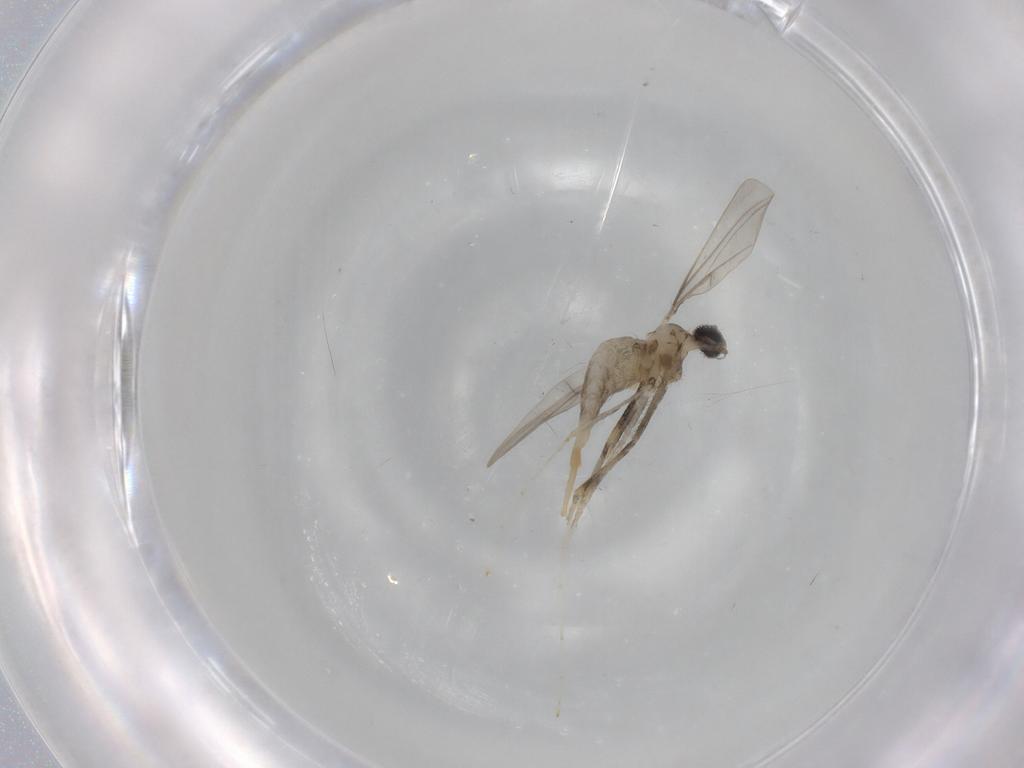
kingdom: Animalia
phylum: Arthropoda
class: Insecta
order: Diptera
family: Cecidomyiidae
